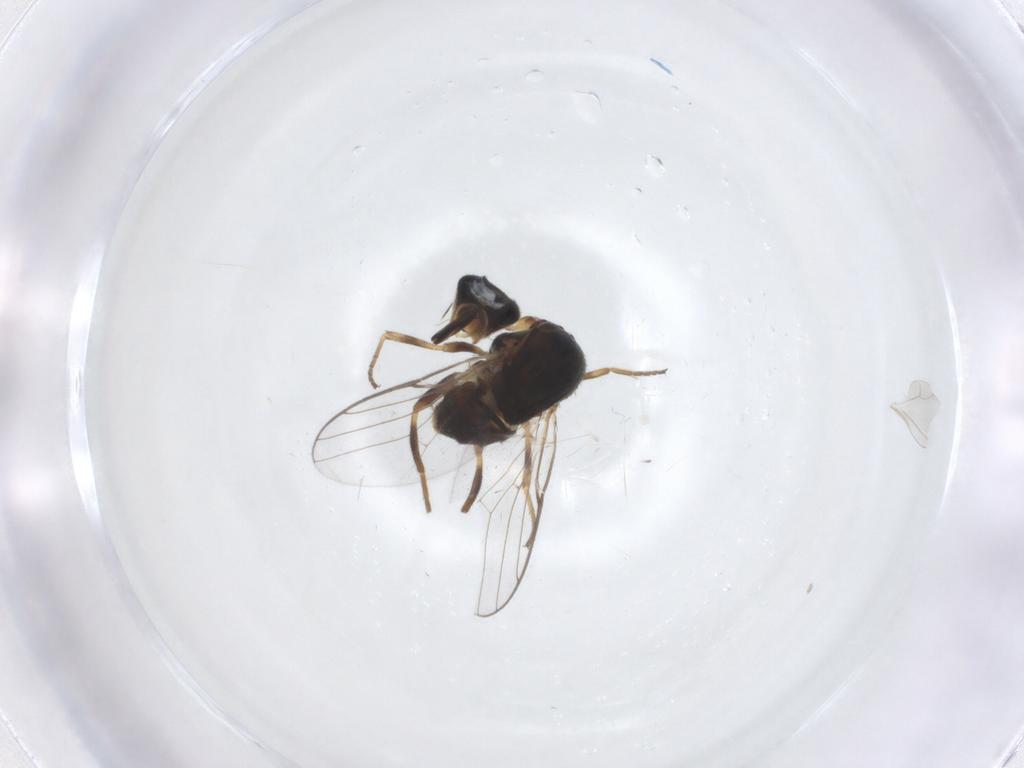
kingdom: Animalia
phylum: Arthropoda
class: Insecta
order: Diptera
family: Chloropidae
